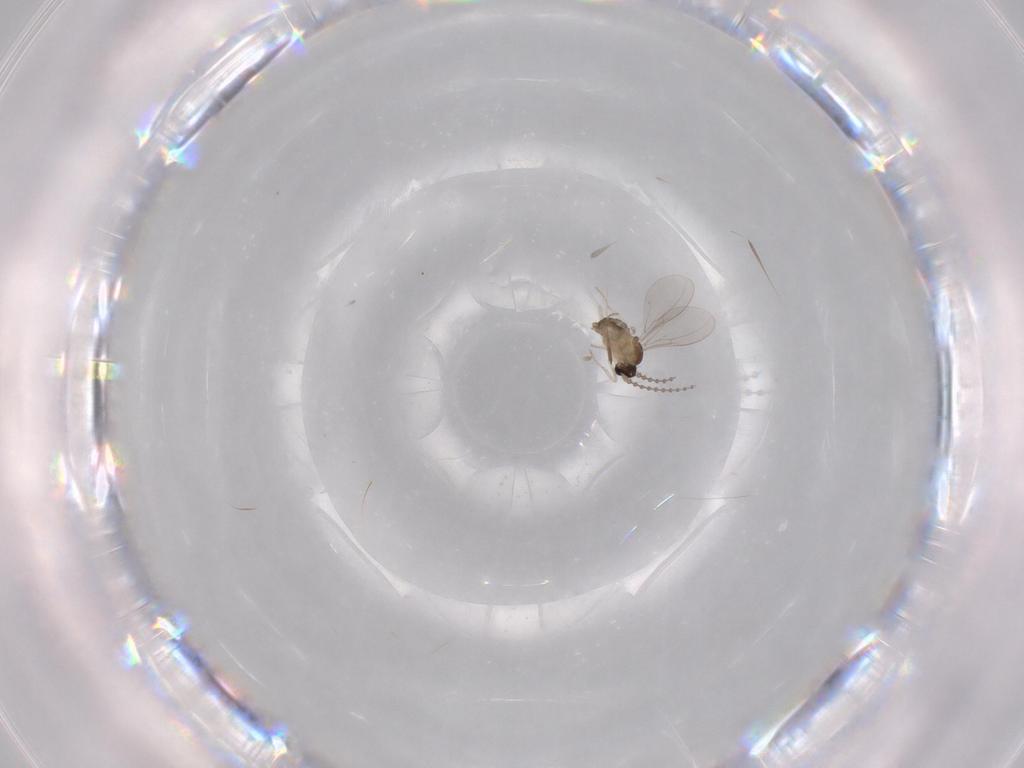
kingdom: Animalia
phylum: Arthropoda
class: Insecta
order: Diptera
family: Cecidomyiidae
